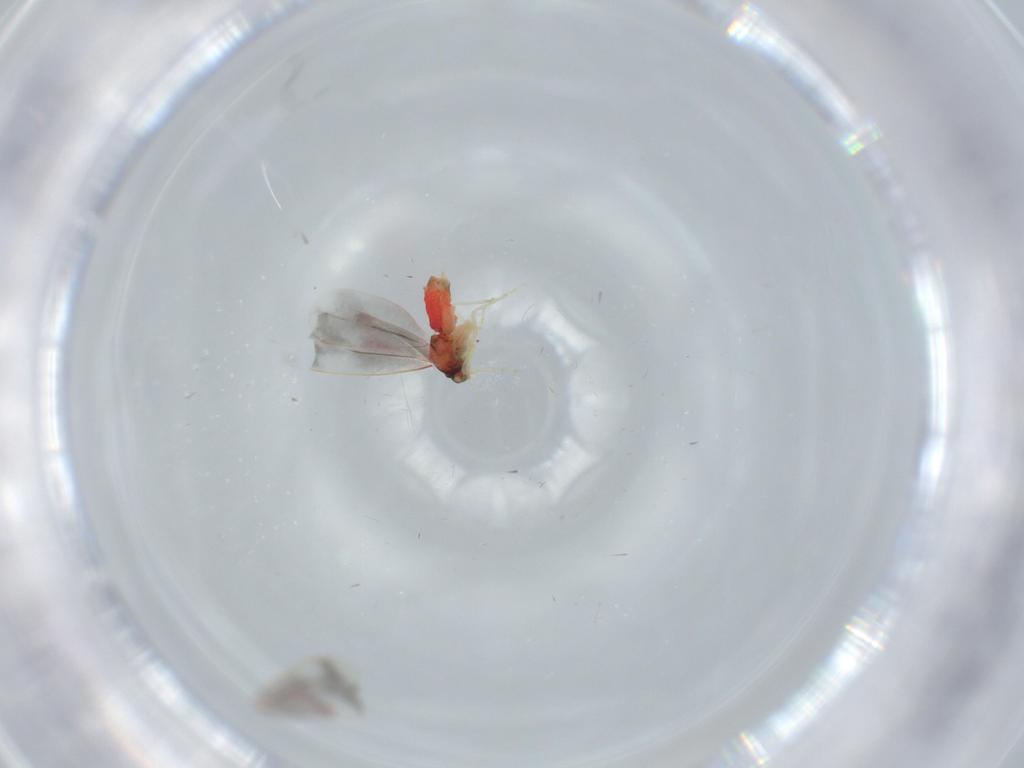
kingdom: Animalia
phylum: Arthropoda
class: Insecta
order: Hemiptera
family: Aleyrodidae
